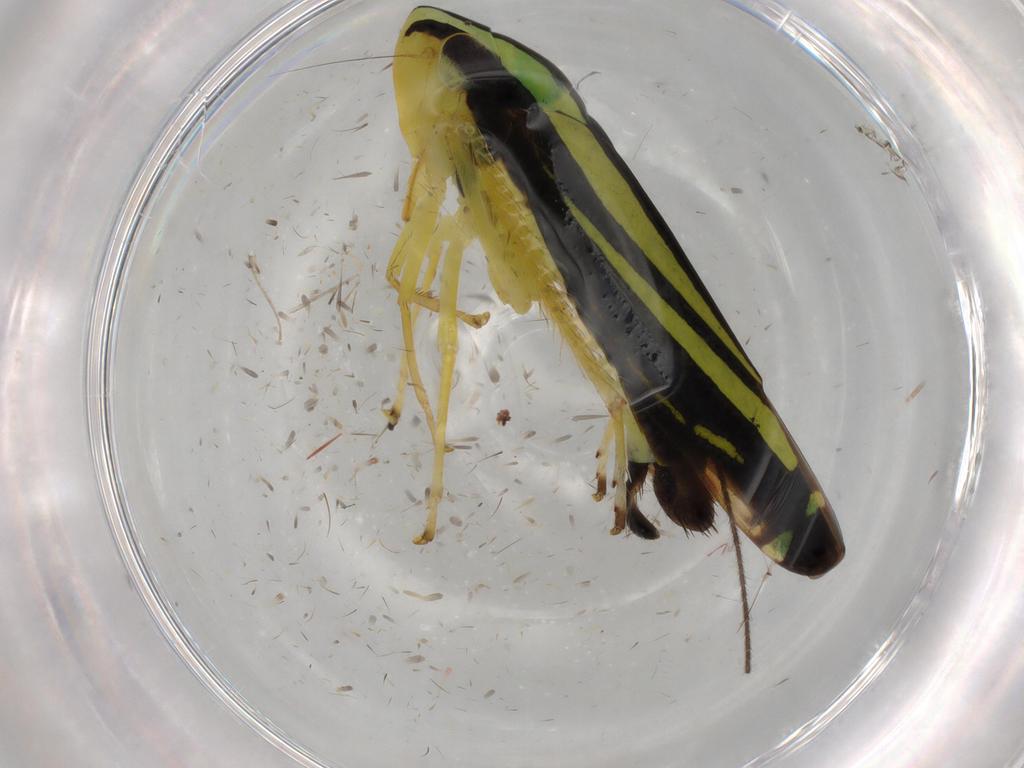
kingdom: Animalia
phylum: Arthropoda
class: Insecta
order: Hemiptera
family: Cicadellidae
